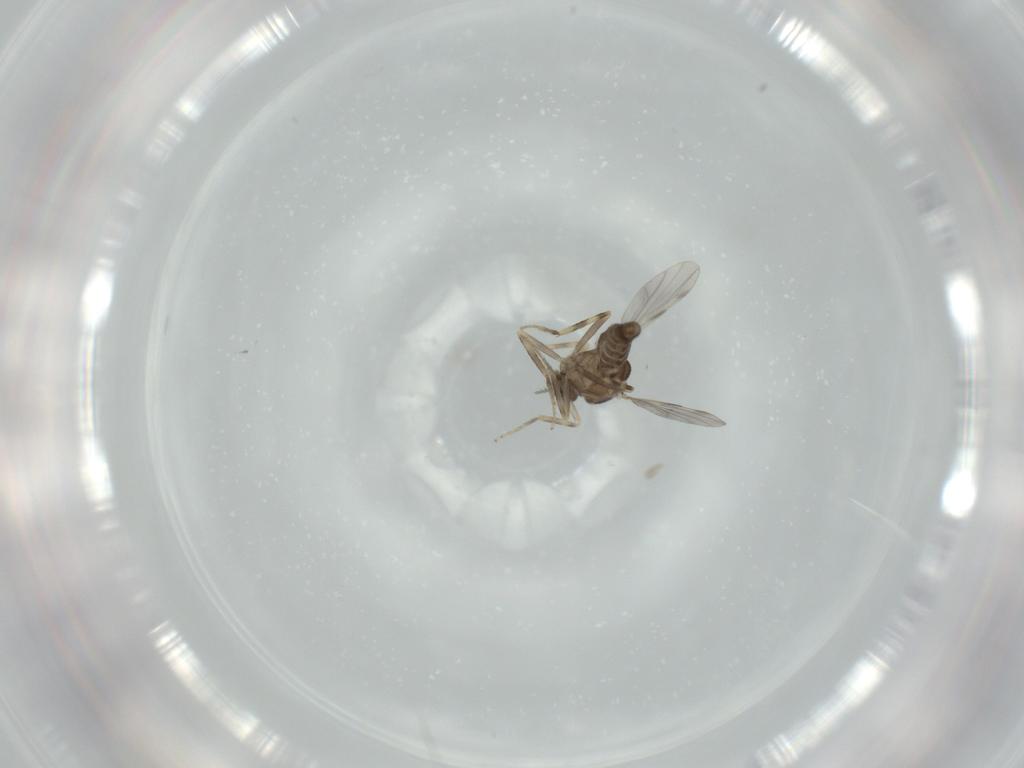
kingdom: Animalia
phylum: Arthropoda
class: Insecta
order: Diptera
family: Ceratopogonidae
